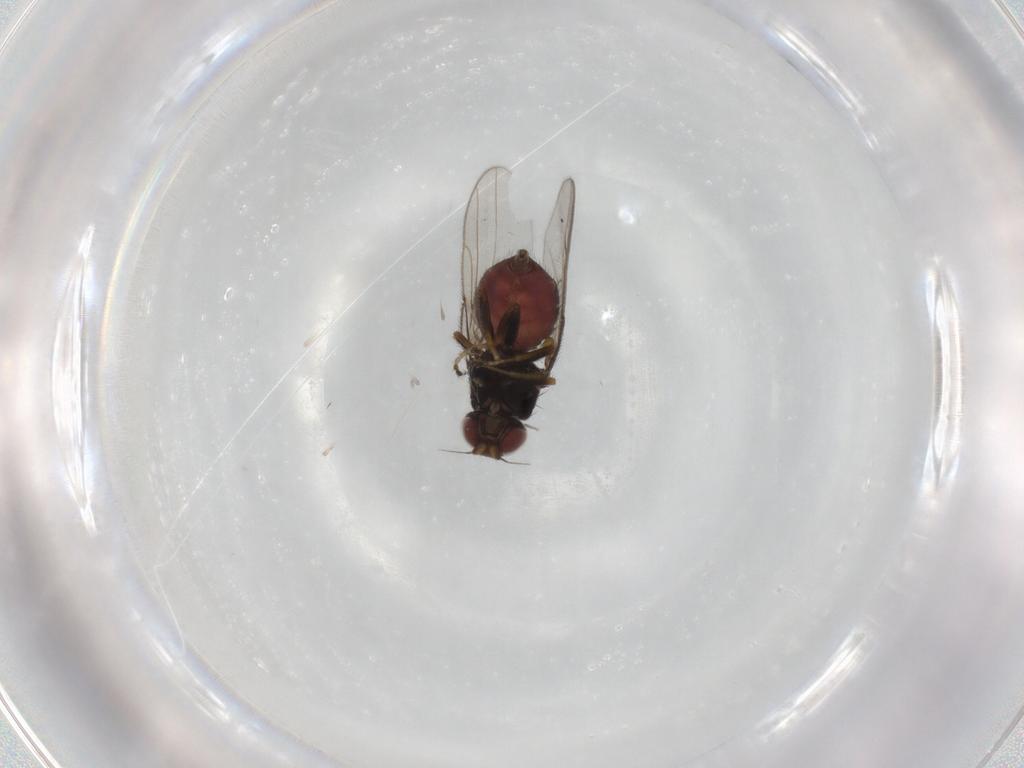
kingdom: Animalia
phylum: Arthropoda
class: Insecta
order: Diptera
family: Chloropidae
